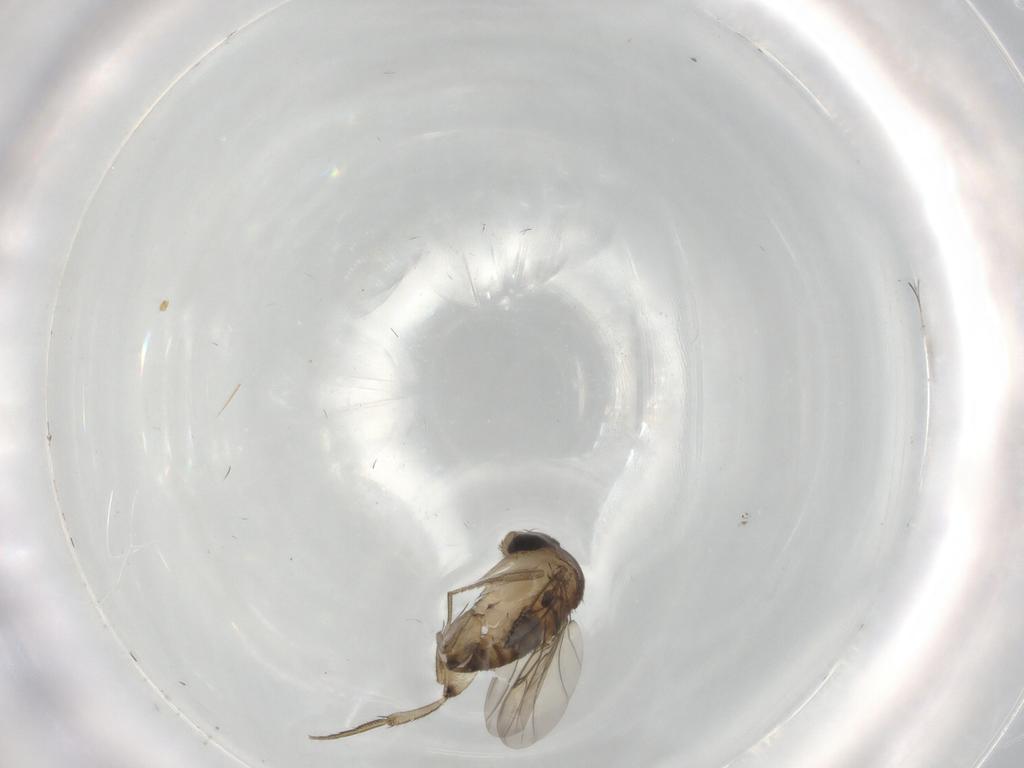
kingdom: Animalia
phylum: Arthropoda
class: Insecta
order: Diptera
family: Phoridae
